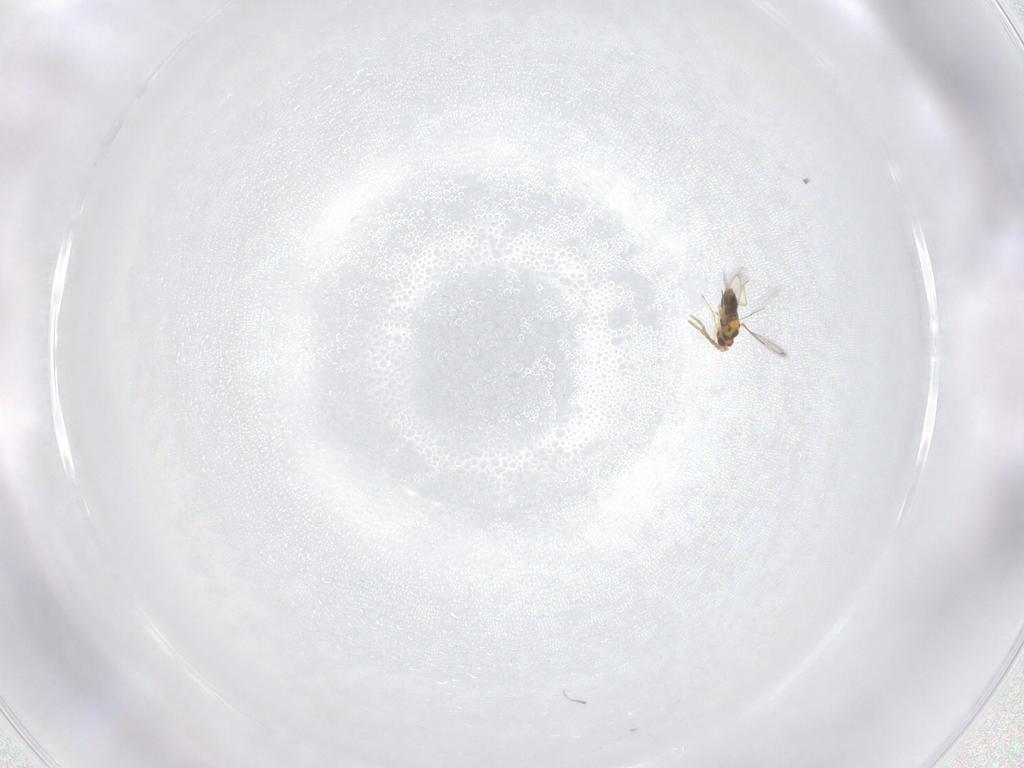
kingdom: Animalia
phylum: Arthropoda
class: Insecta
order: Hymenoptera
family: Aphelinidae
